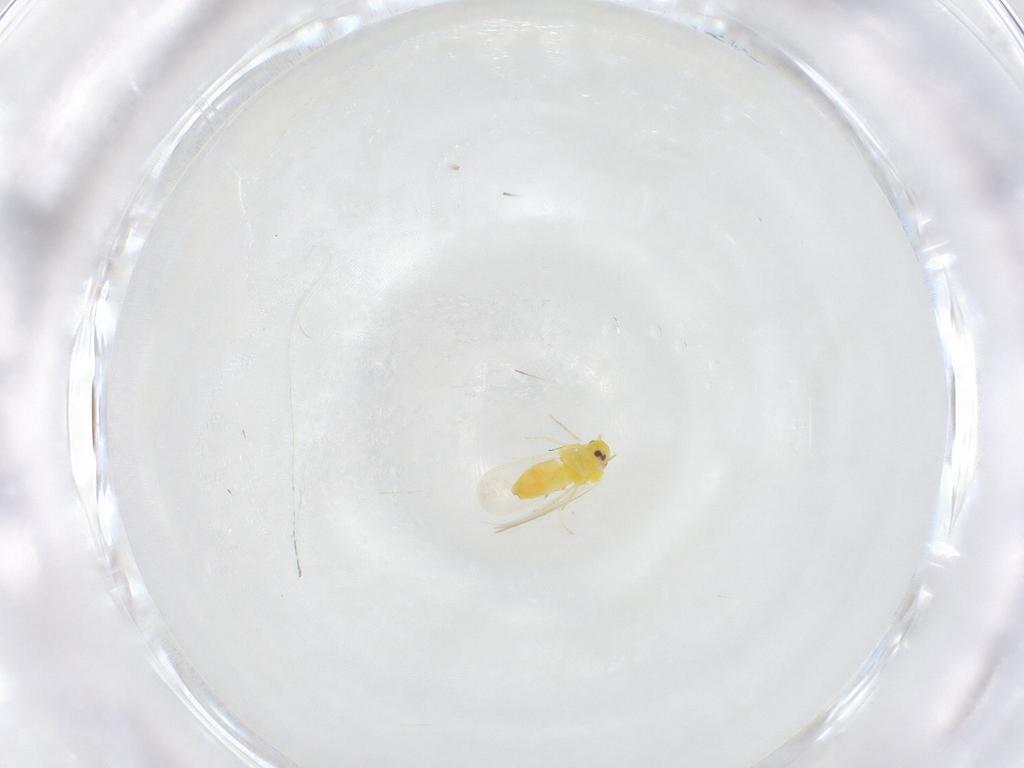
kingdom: Animalia
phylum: Arthropoda
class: Insecta
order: Hemiptera
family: Aleyrodidae
